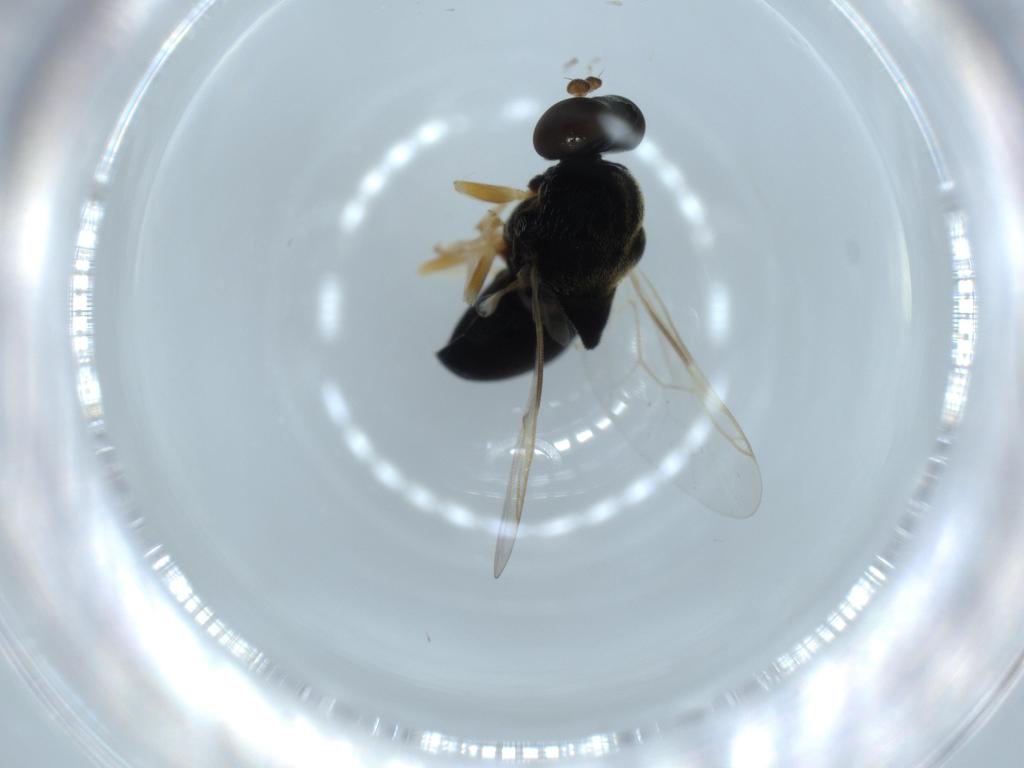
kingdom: Animalia
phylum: Arthropoda
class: Insecta
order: Diptera
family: Stratiomyidae
